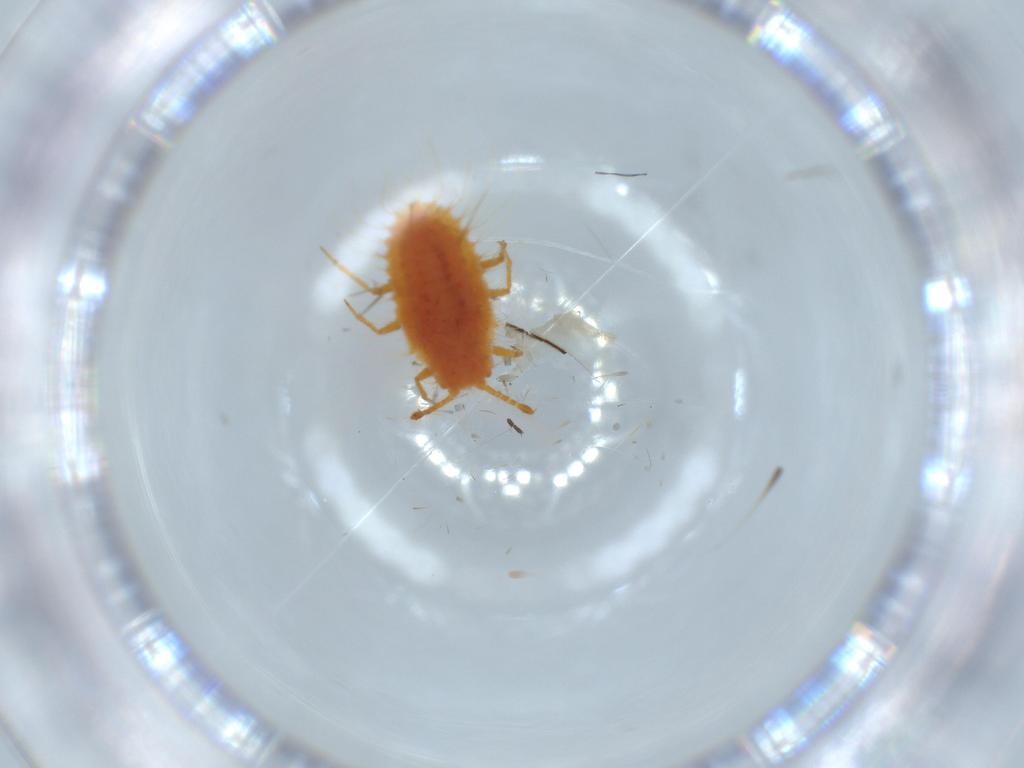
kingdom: Animalia
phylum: Arthropoda
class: Insecta
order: Hemiptera
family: Coccoidea_incertae_sedis
